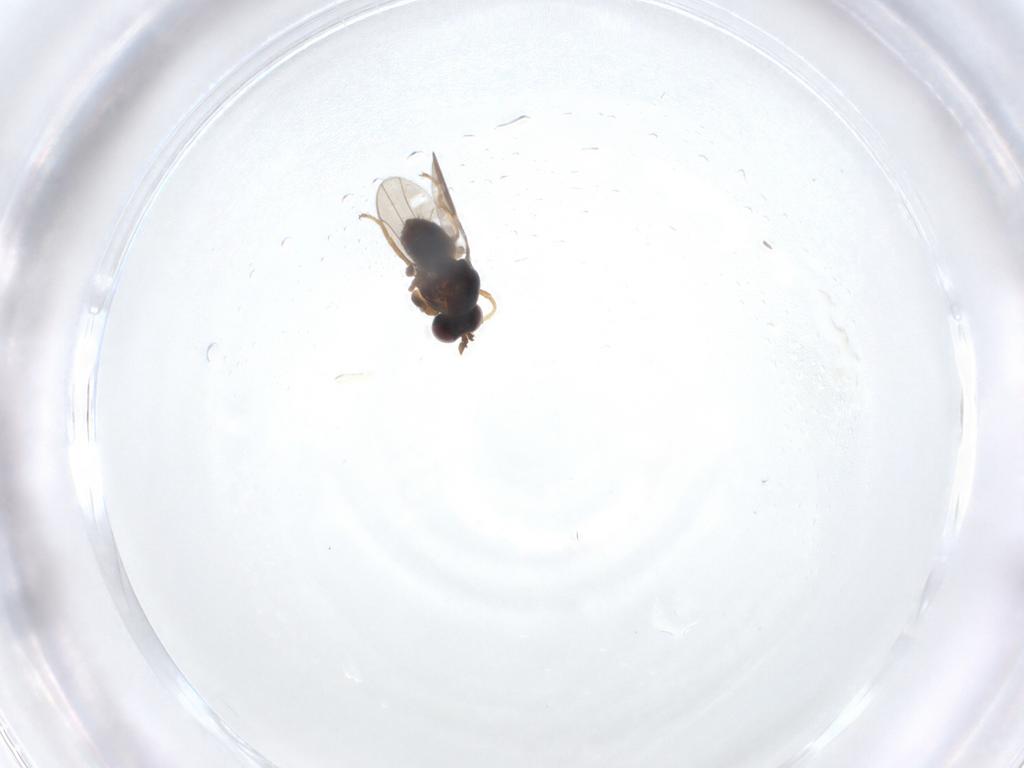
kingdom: Animalia
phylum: Arthropoda
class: Insecta
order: Diptera
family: Ephydridae
